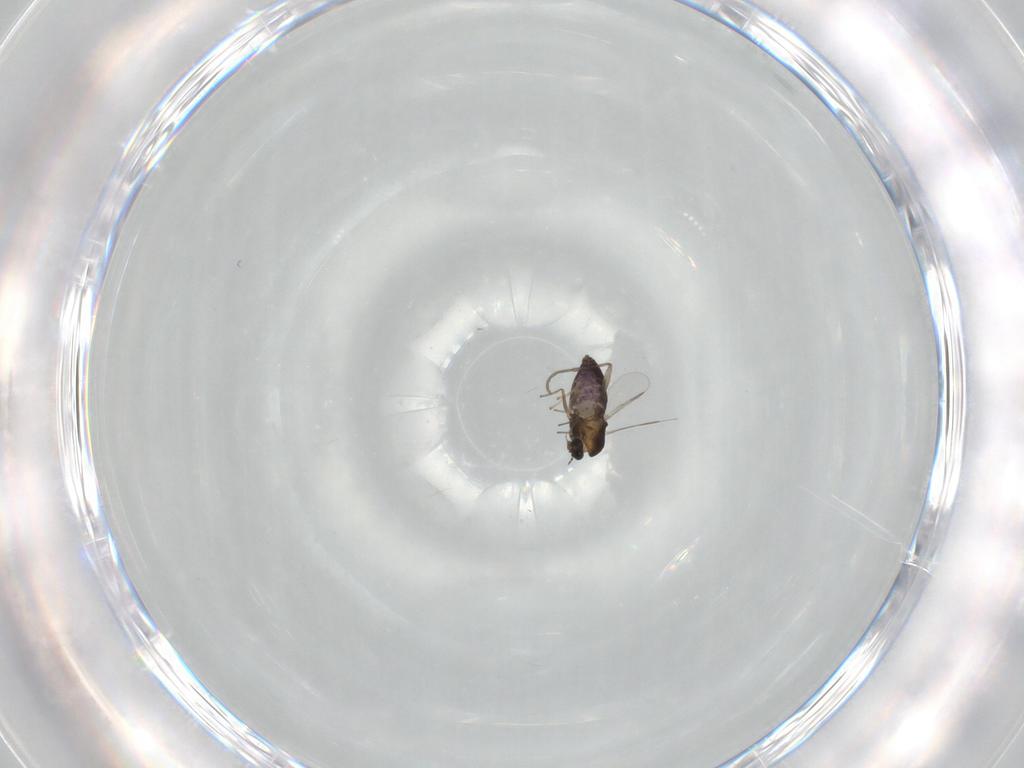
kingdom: Animalia
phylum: Arthropoda
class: Insecta
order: Diptera
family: Chironomidae
